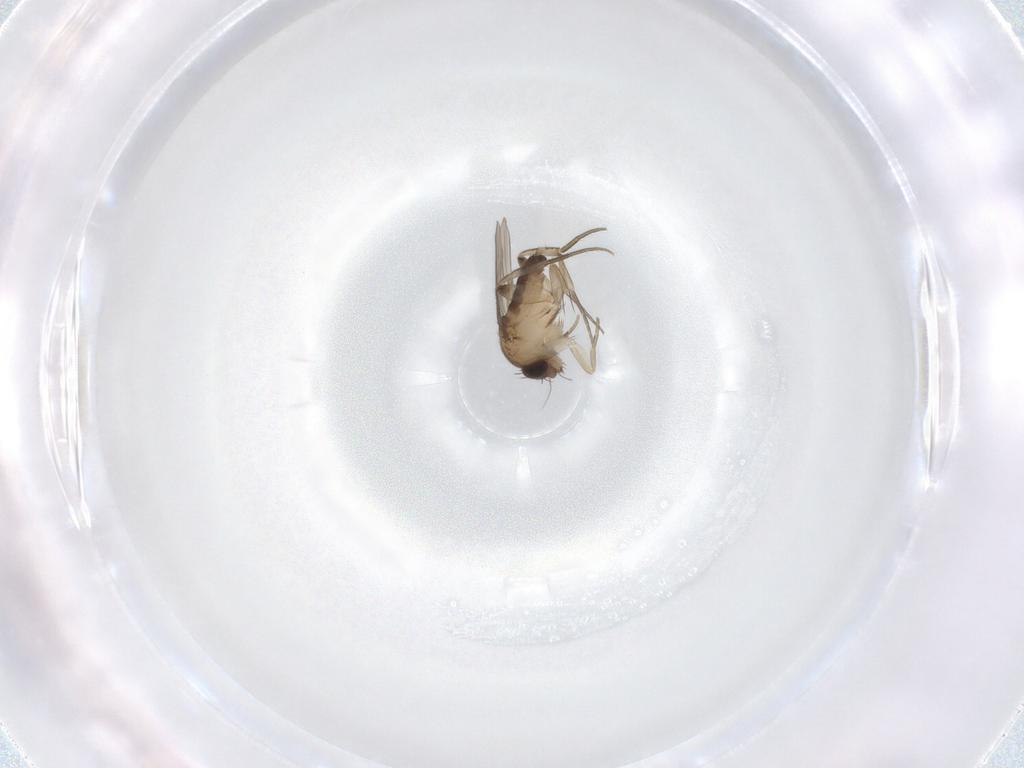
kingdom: Animalia
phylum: Arthropoda
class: Insecta
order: Diptera
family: Phoridae
